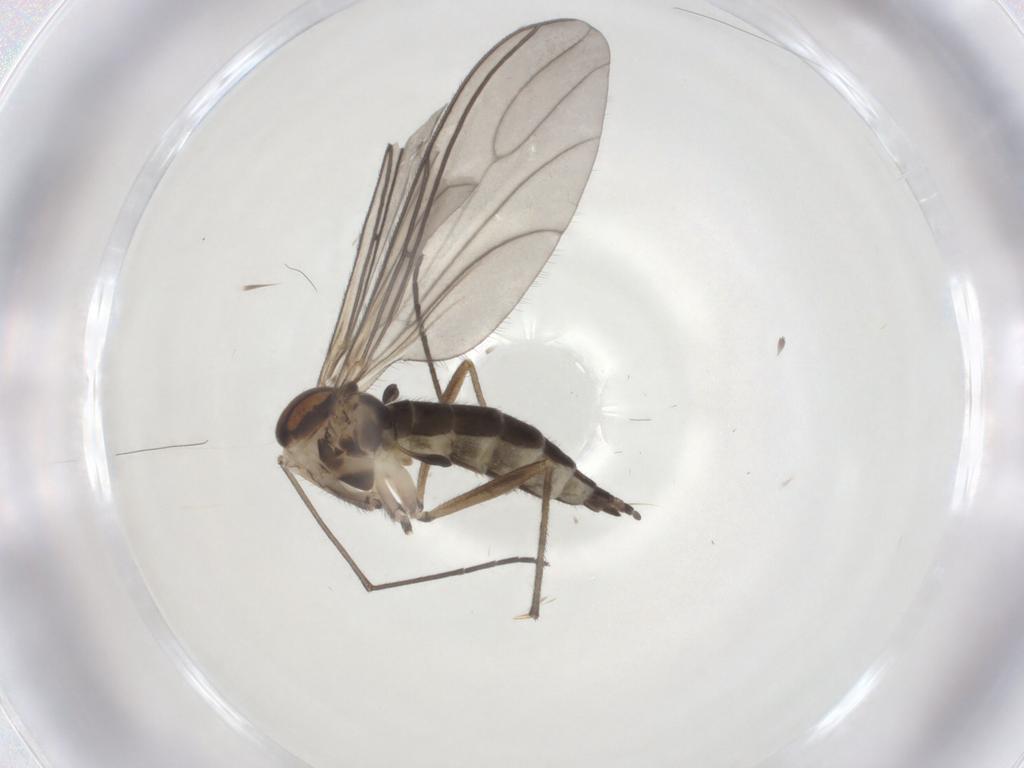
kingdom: Animalia
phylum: Arthropoda
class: Insecta
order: Diptera
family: Sciaridae
